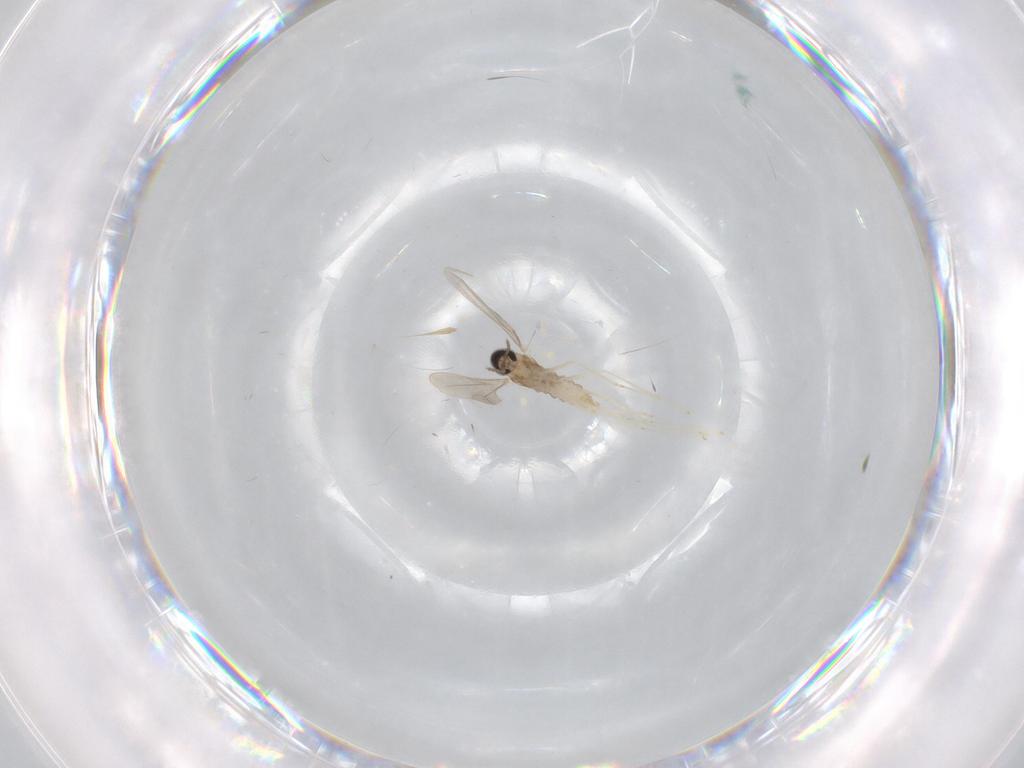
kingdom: Animalia
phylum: Arthropoda
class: Insecta
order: Diptera
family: Cecidomyiidae
